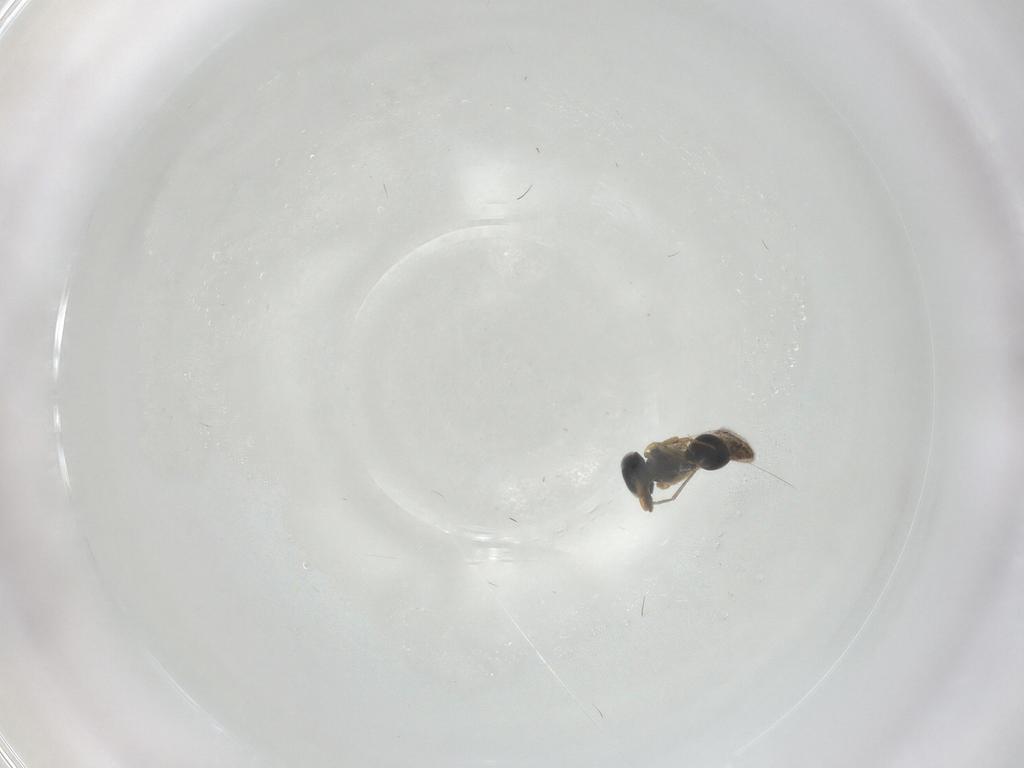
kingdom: Animalia
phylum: Arthropoda
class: Insecta
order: Hymenoptera
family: Scelionidae
